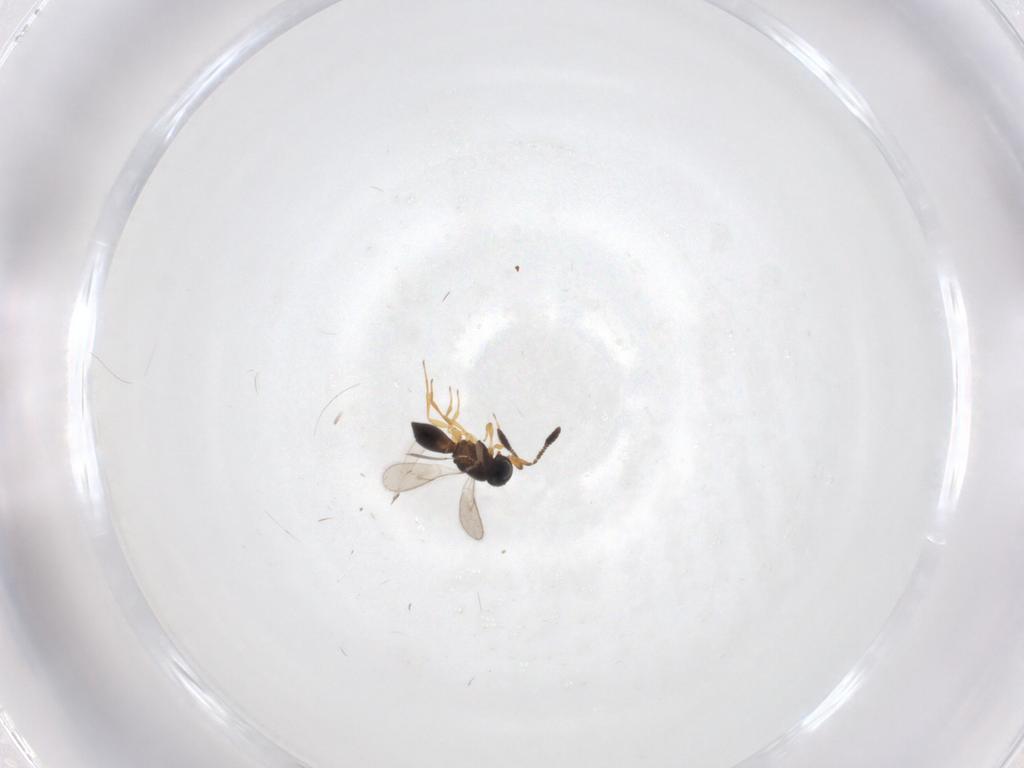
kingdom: Animalia
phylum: Arthropoda
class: Insecta
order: Hymenoptera
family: Scelionidae
